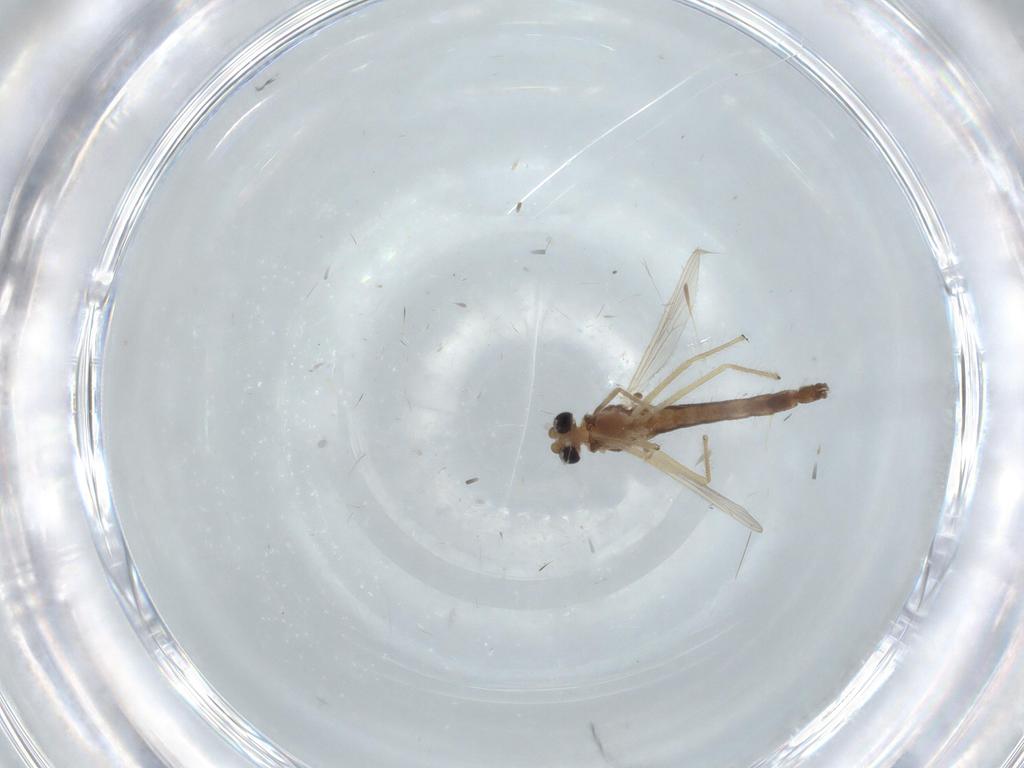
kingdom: Animalia
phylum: Arthropoda
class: Insecta
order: Diptera
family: Chironomidae
